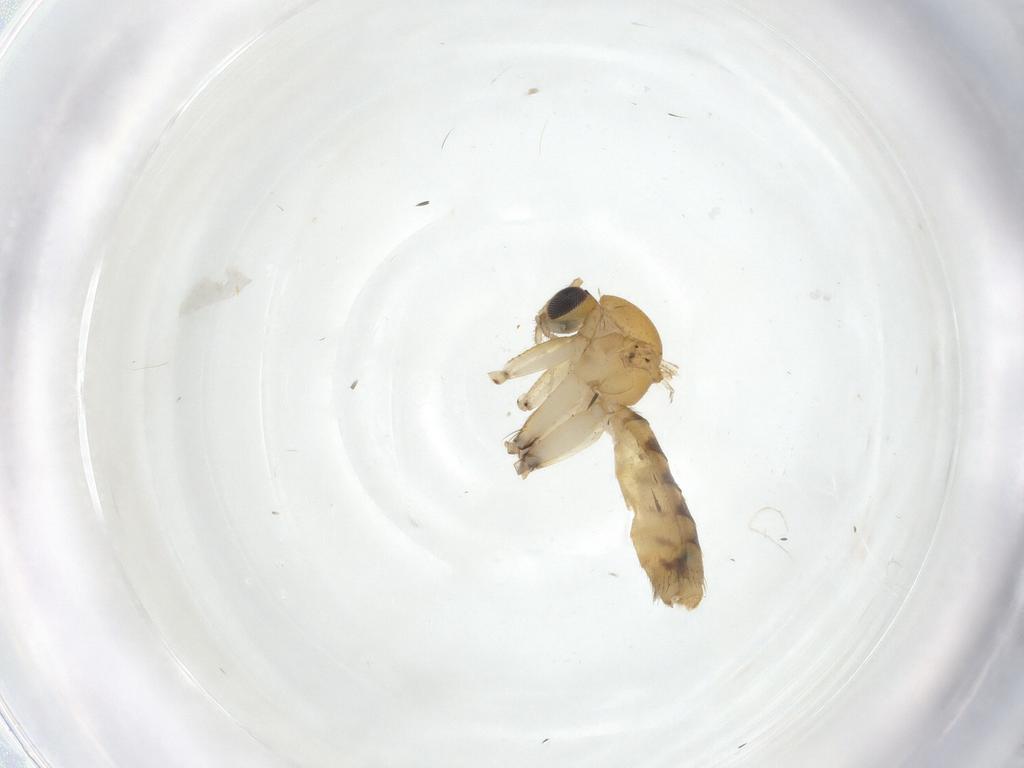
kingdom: Animalia
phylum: Arthropoda
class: Insecta
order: Diptera
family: Mycetophilidae
